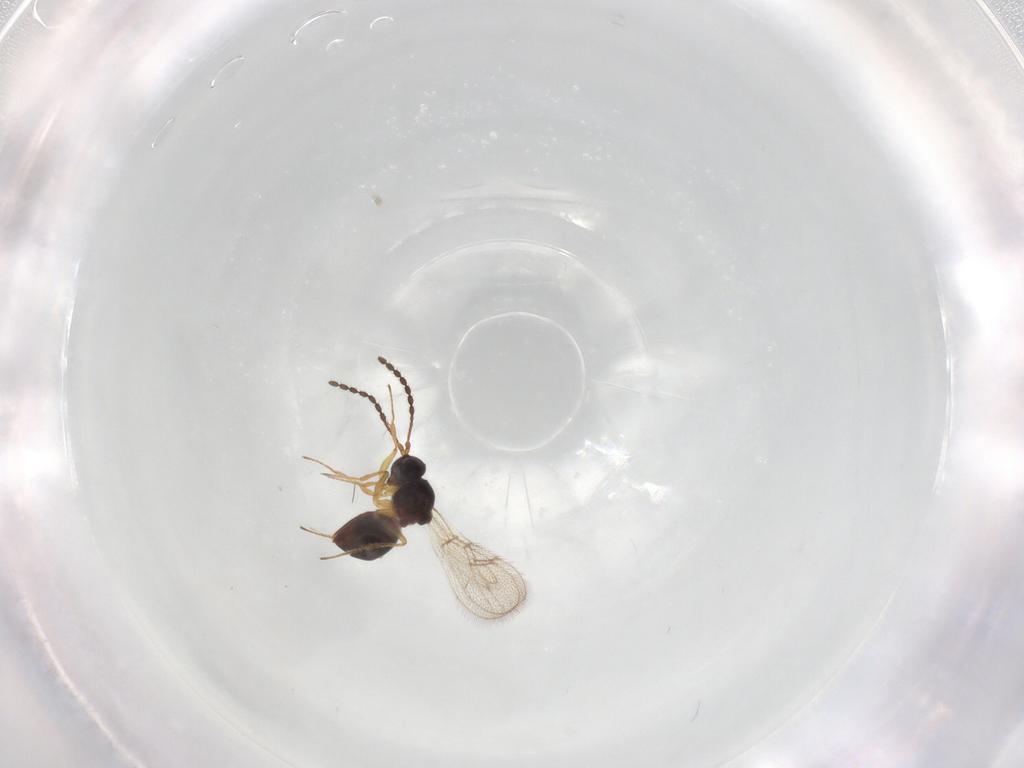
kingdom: Animalia
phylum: Arthropoda
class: Insecta
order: Hymenoptera
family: Figitidae
